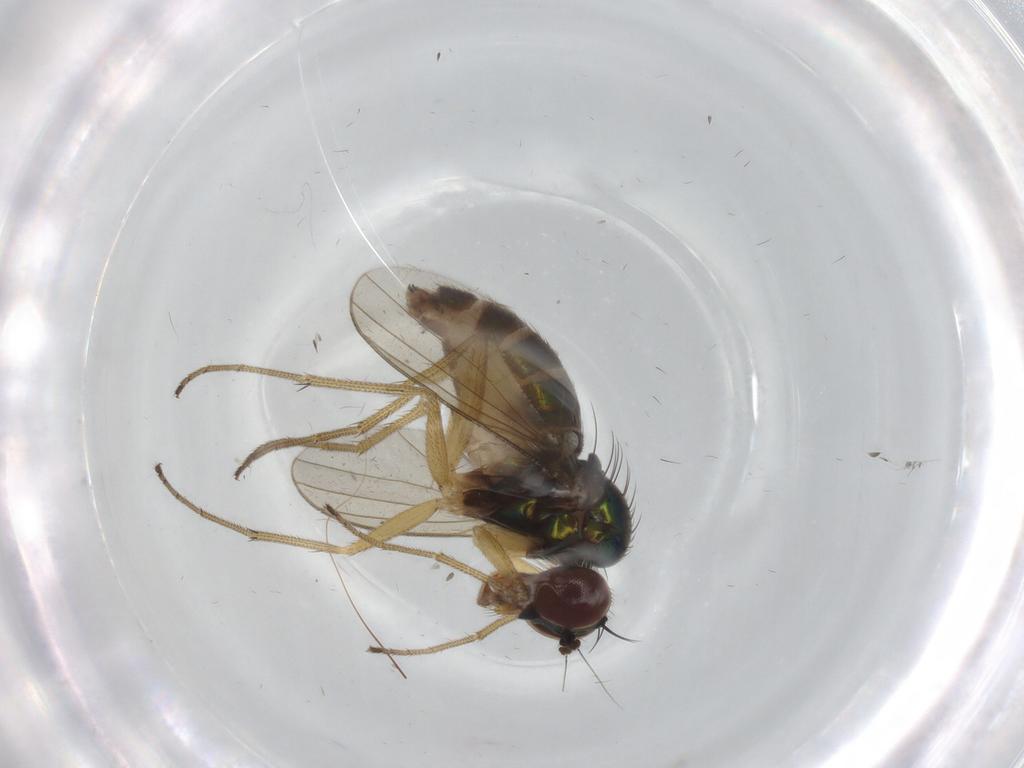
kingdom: Animalia
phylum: Arthropoda
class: Insecta
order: Diptera
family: Dolichopodidae
